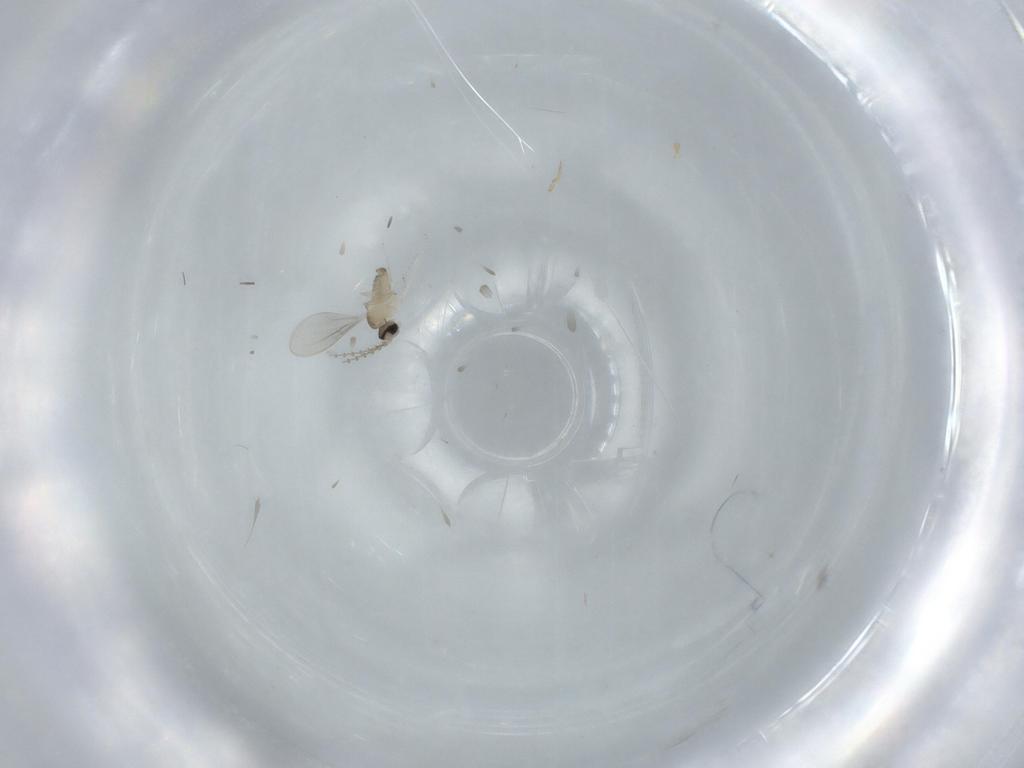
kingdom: Animalia
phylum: Arthropoda
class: Insecta
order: Diptera
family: Cecidomyiidae
